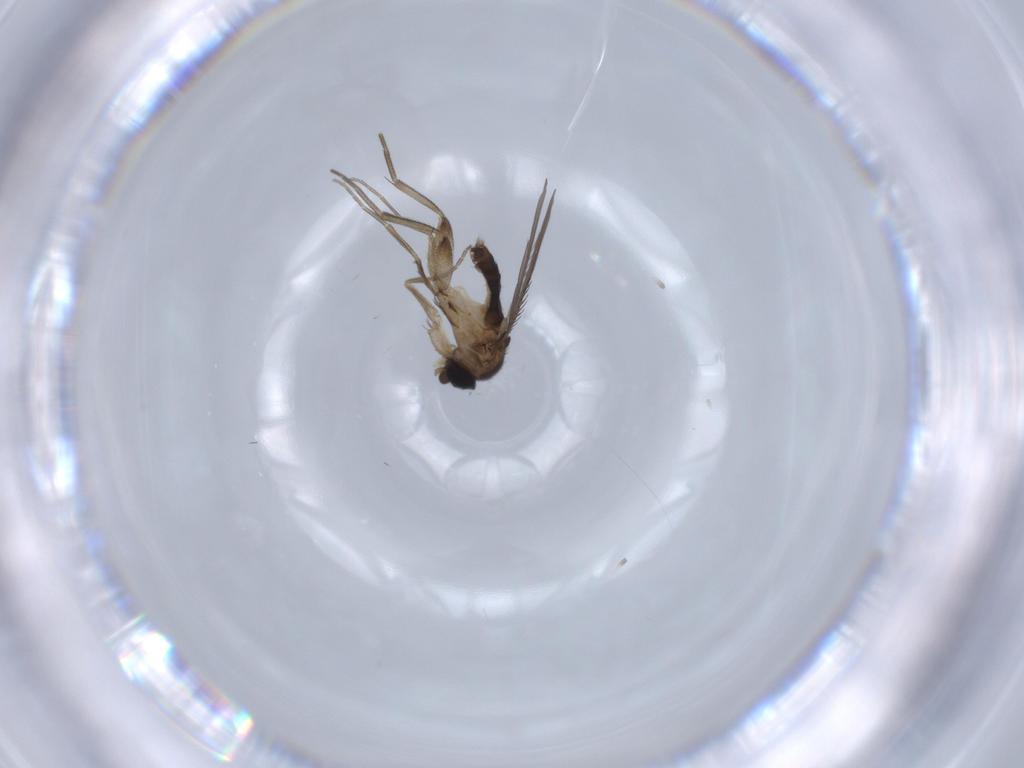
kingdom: Animalia
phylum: Arthropoda
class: Insecta
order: Diptera
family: Phoridae
